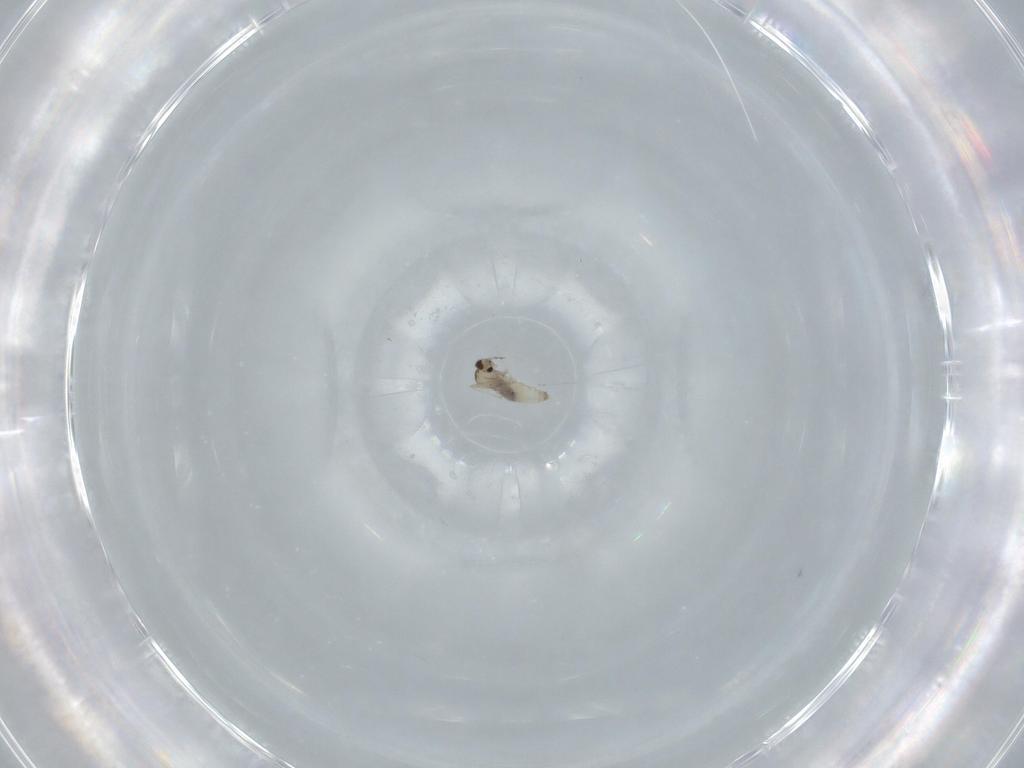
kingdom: Animalia
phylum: Arthropoda
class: Insecta
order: Diptera
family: Cecidomyiidae
